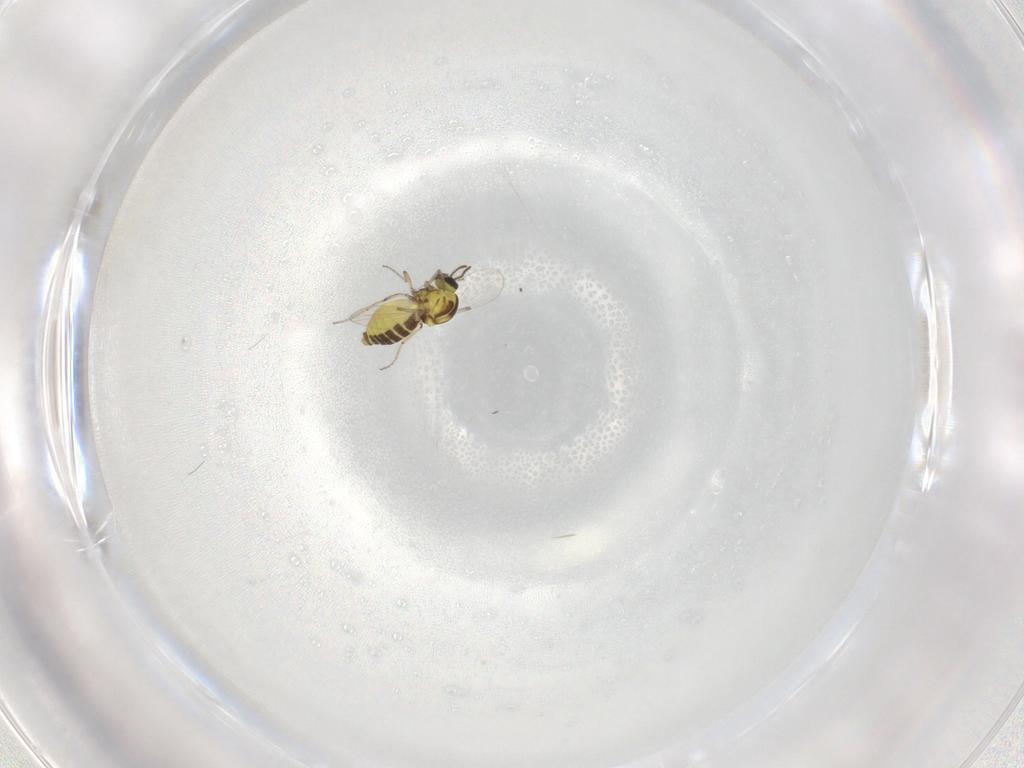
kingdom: Animalia
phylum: Arthropoda
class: Insecta
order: Diptera
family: Ceratopogonidae
